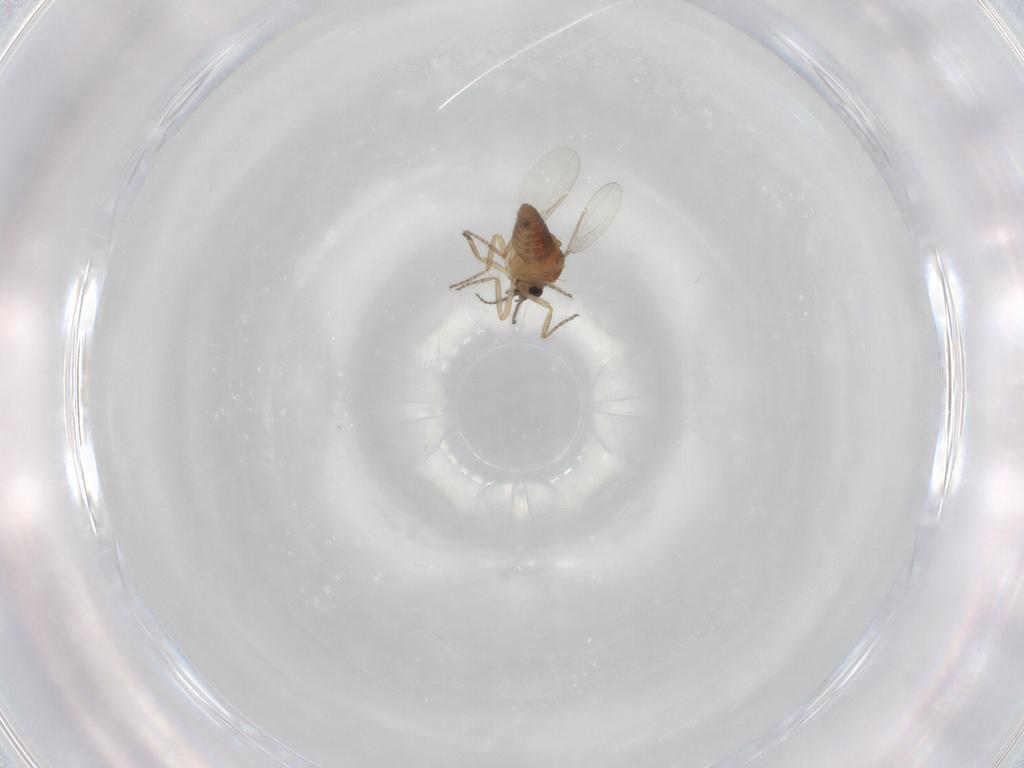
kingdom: Animalia
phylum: Arthropoda
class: Insecta
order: Diptera
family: Ceratopogonidae
